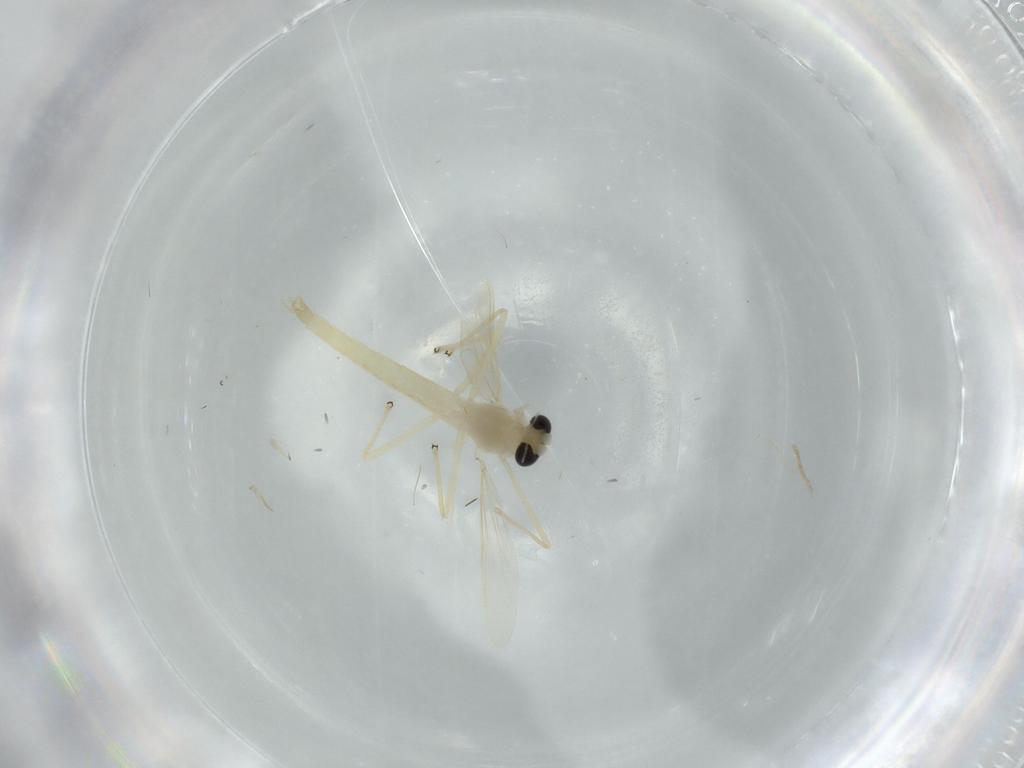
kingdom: Animalia
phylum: Arthropoda
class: Insecta
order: Diptera
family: Chironomidae
